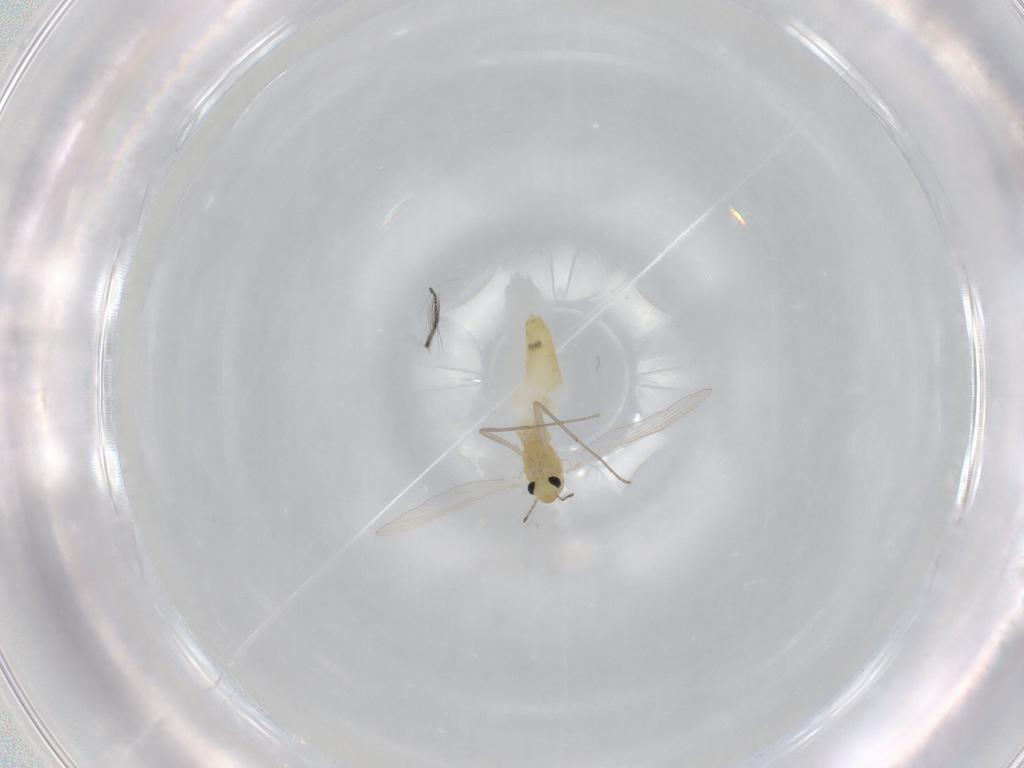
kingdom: Animalia
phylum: Arthropoda
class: Insecta
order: Diptera
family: Chironomidae
